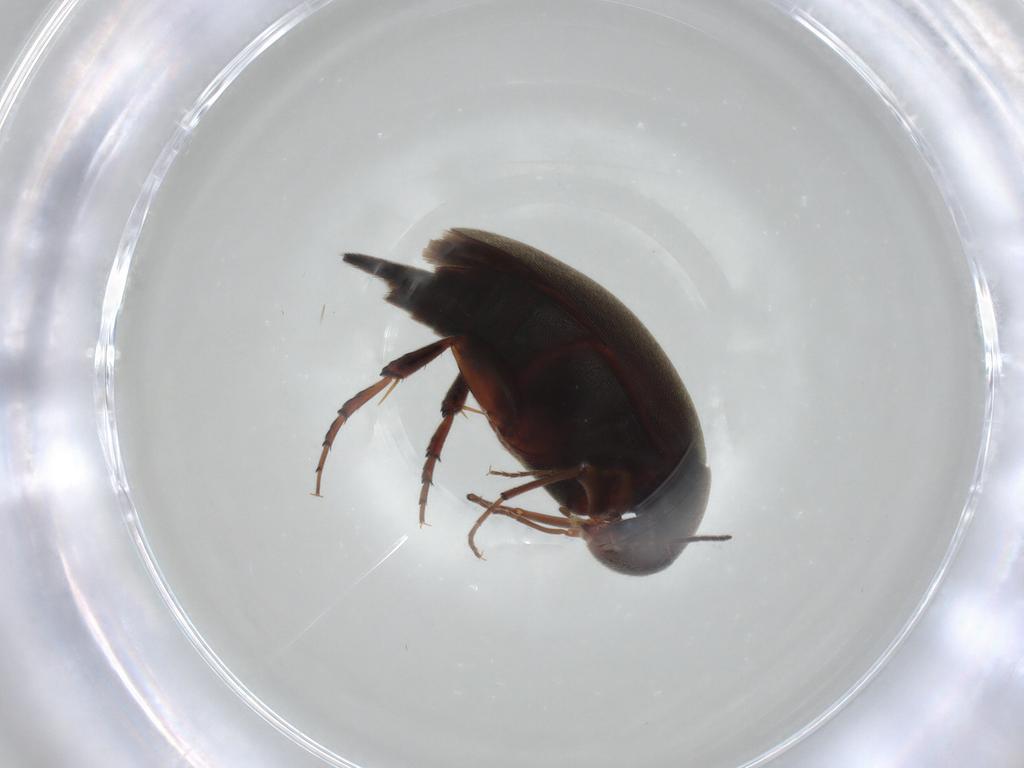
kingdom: Animalia
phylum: Arthropoda
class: Insecta
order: Coleoptera
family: Mordellidae
